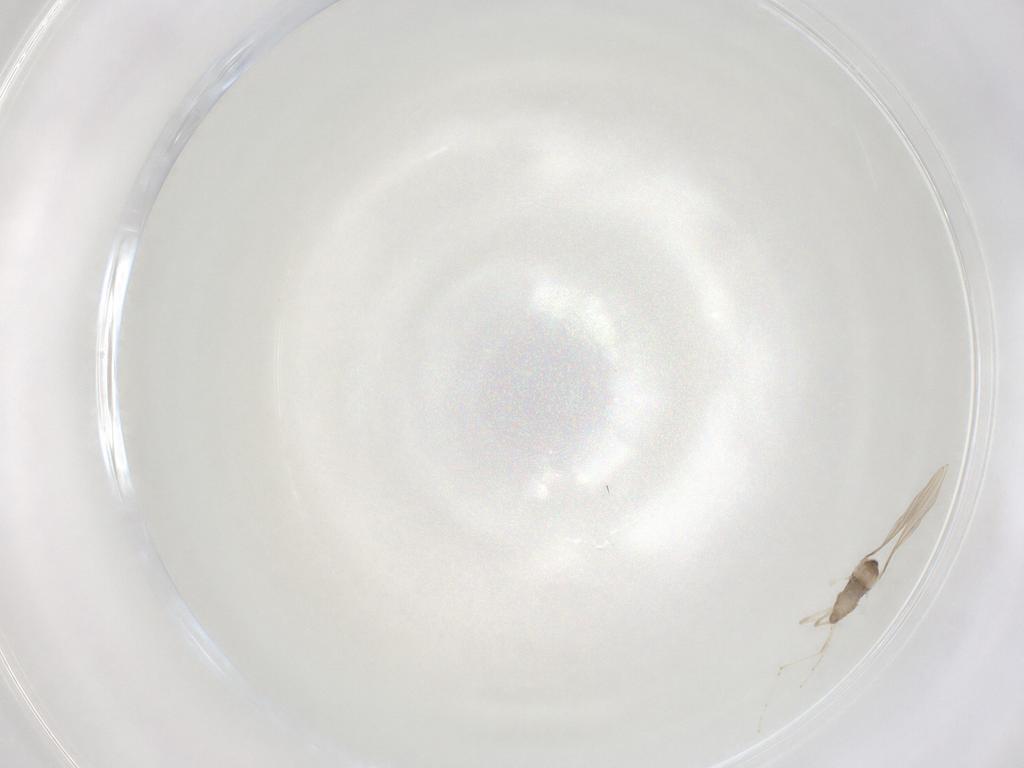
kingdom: Animalia
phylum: Arthropoda
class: Insecta
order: Diptera
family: Cecidomyiidae
